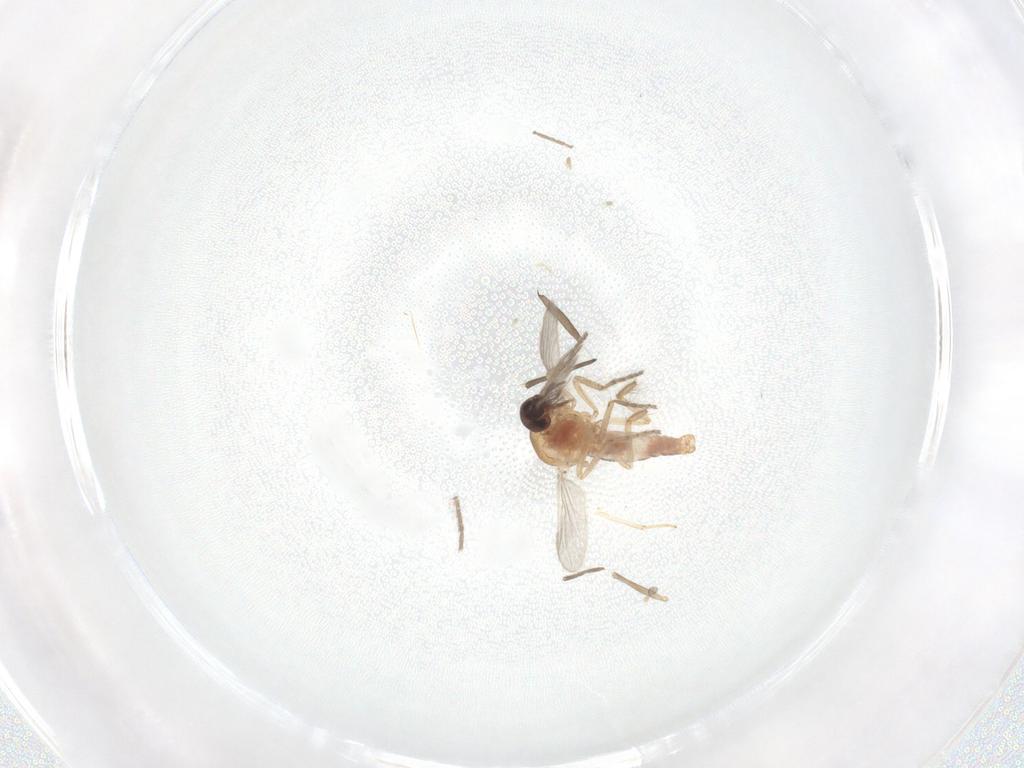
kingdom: Animalia
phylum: Arthropoda
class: Insecta
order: Diptera
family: Ceratopogonidae
